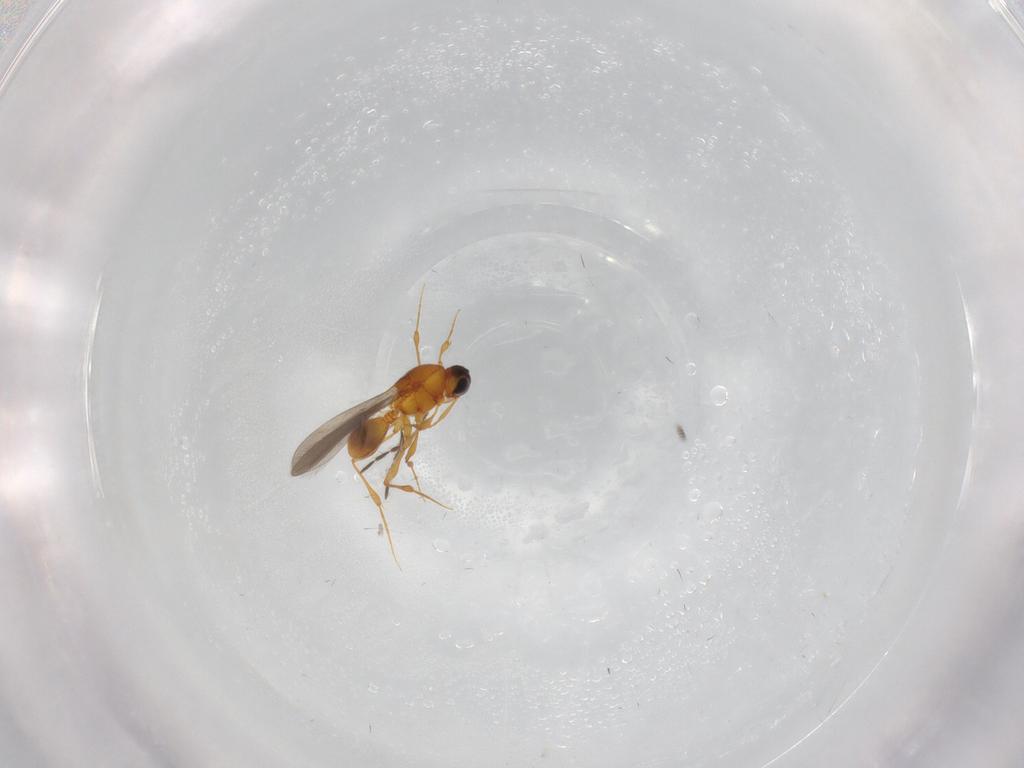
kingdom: Animalia
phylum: Arthropoda
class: Insecta
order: Hymenoptera
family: Platygastridae
